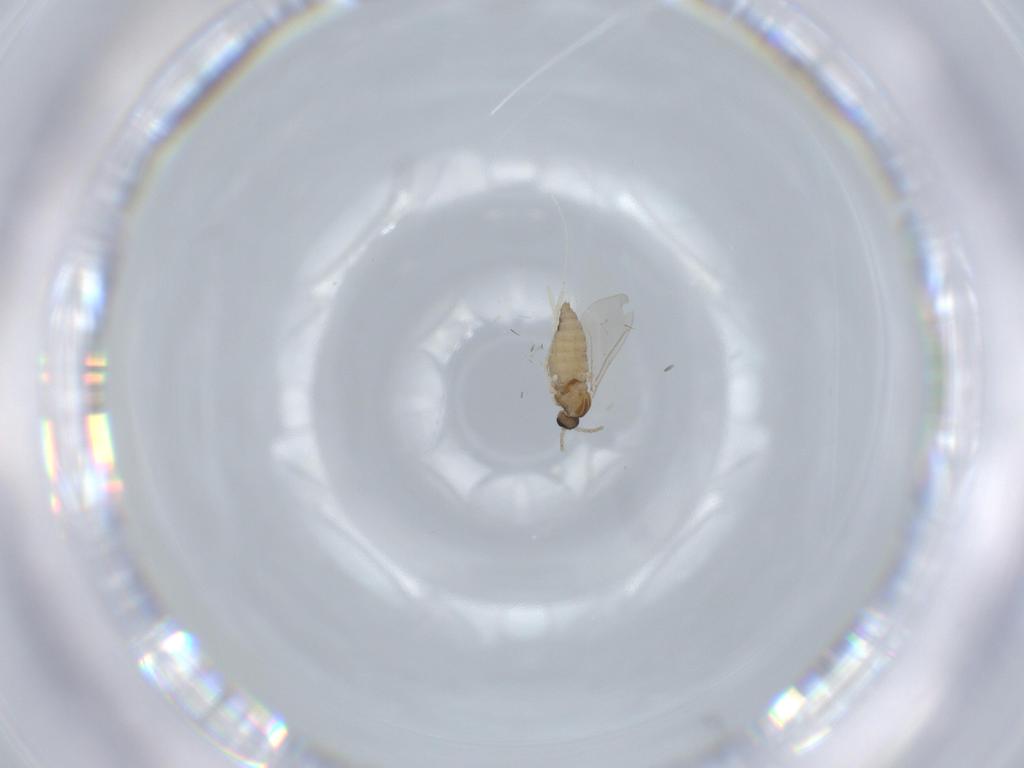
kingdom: Animalia
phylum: Arthropoda
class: Insecta
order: Diptera
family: Cecidomyiidae
